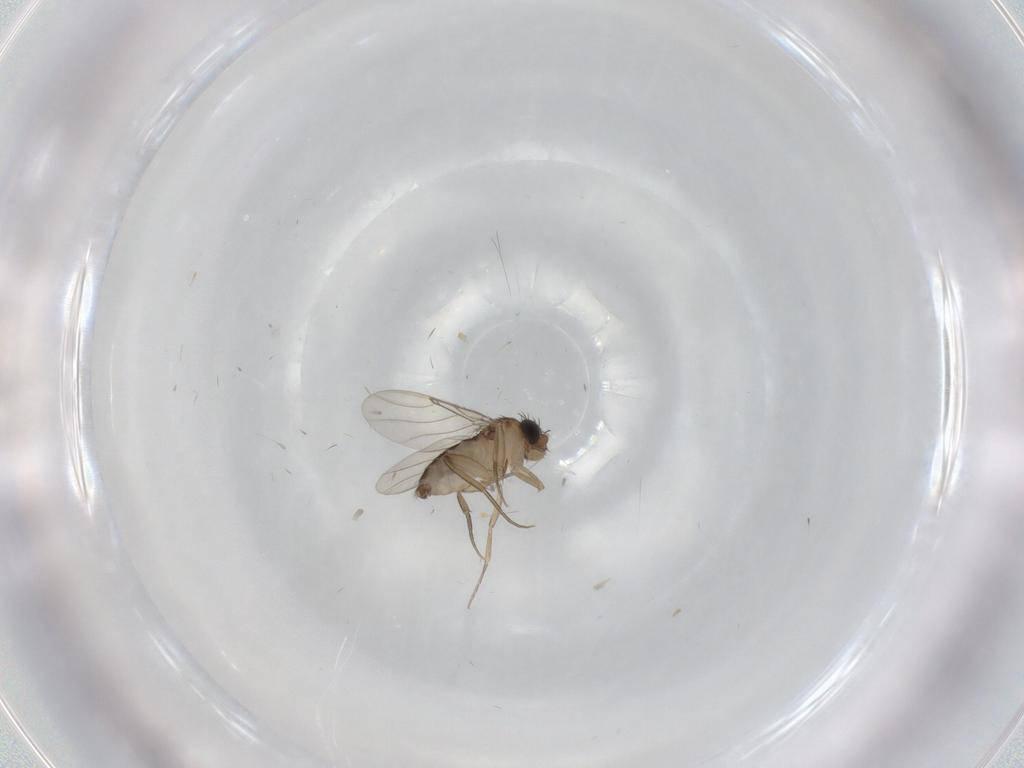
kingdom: Animalia
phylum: Arthropoda
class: Insecta
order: Diptera
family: Phoridae
